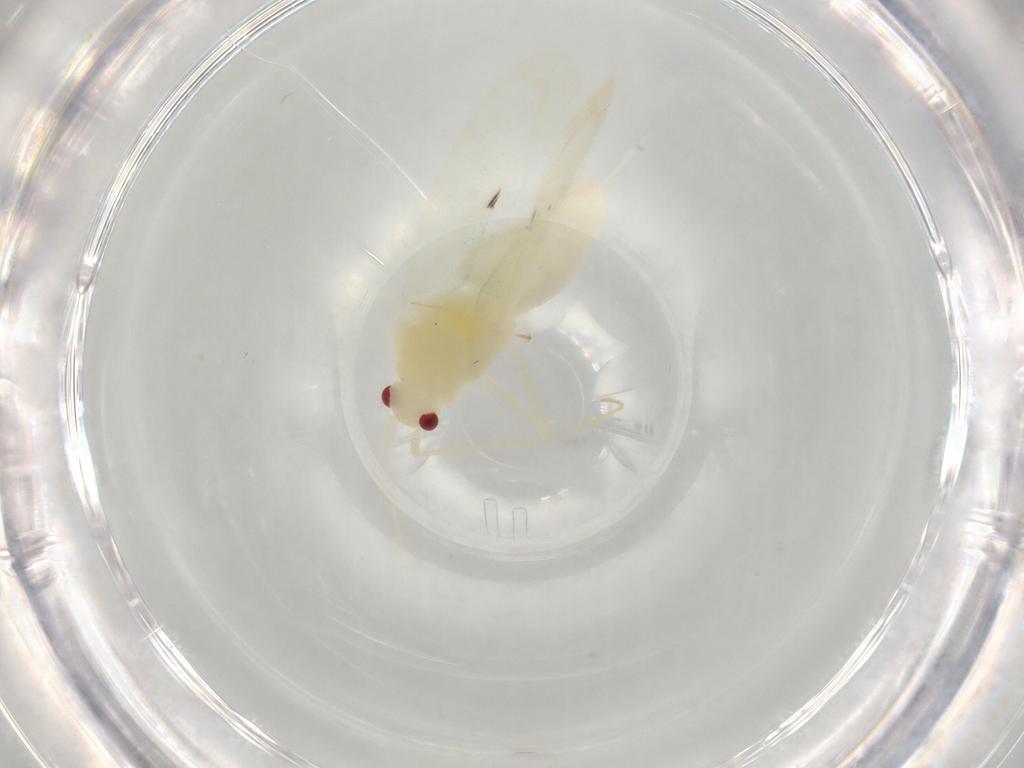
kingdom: Animalia
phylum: Arthropoda
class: Insecta
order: Hemiptera
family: Miridae
